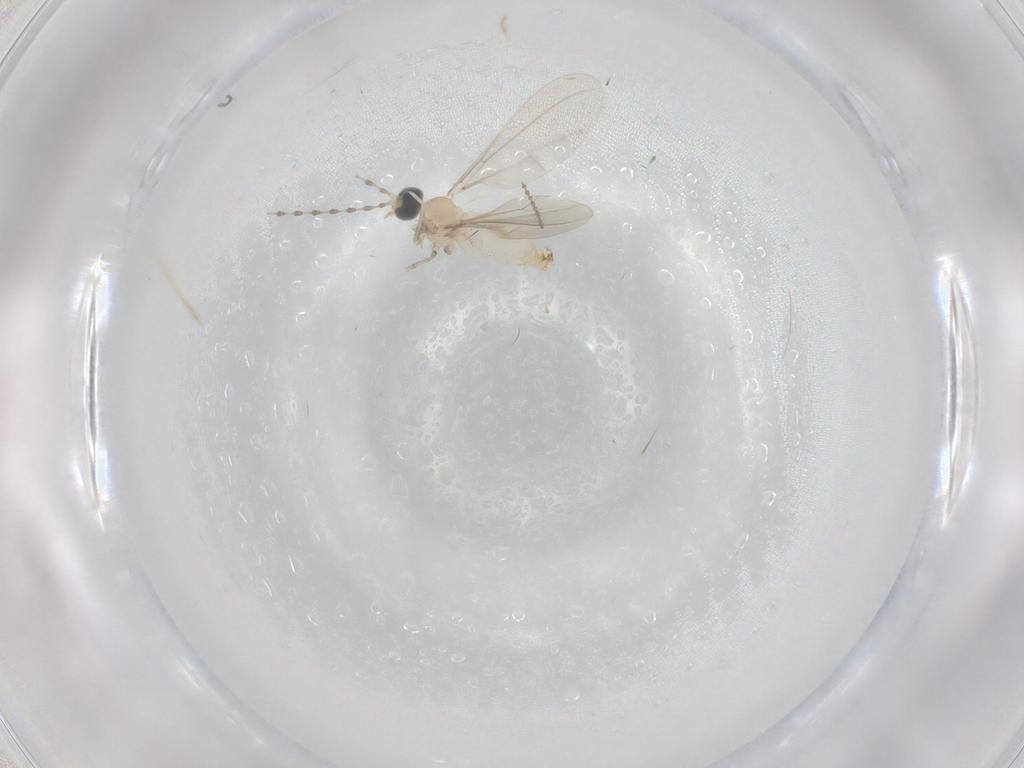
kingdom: Animalia
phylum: Arthropoda
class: Insecta
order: Diptera
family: Cecidomyiidae
